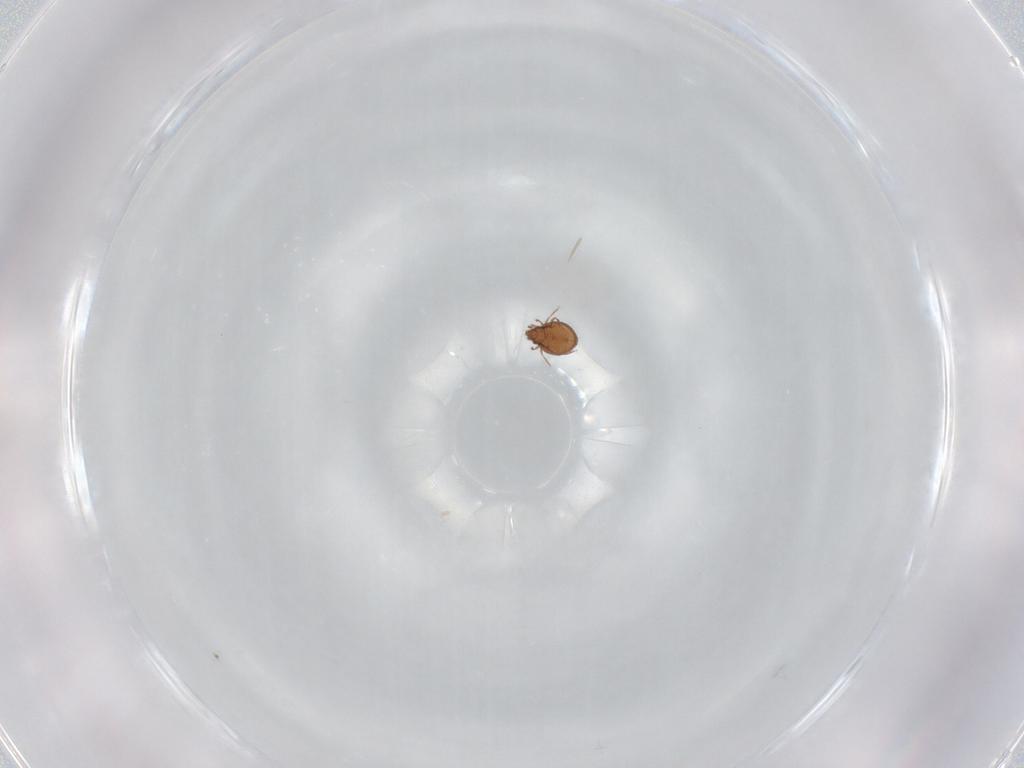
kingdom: Animalia
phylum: Arthropoda
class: Arachnida
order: Sarcoptiformes
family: Oribatulidae
